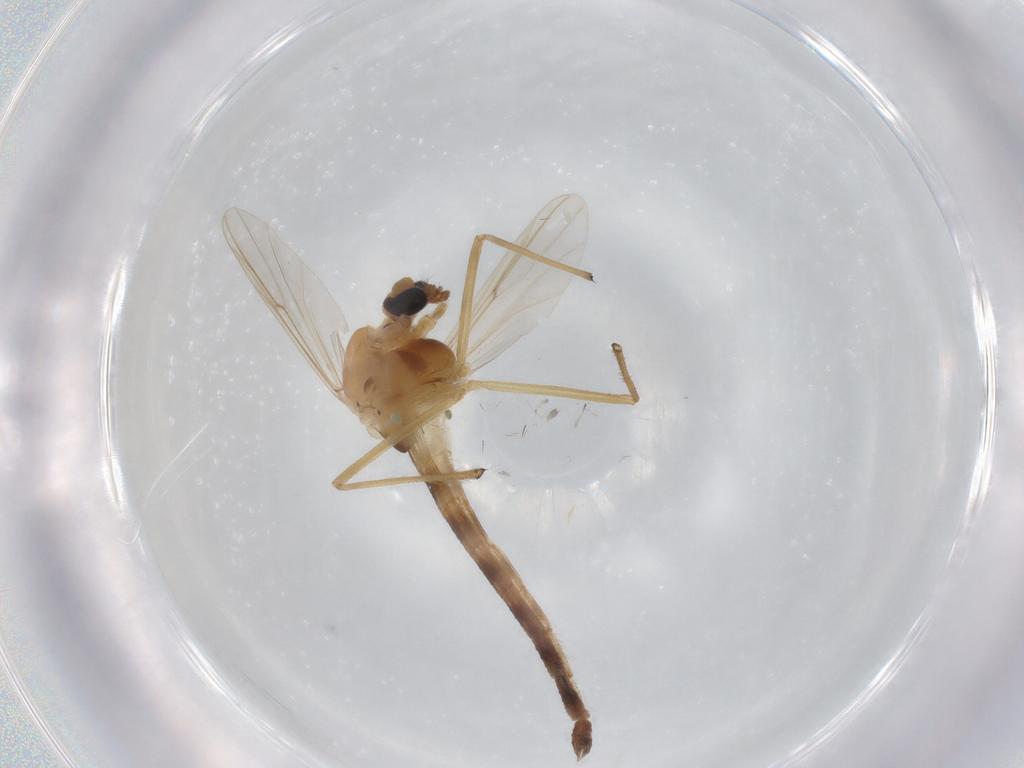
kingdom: Animalia
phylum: Arthropoda
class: Insecta
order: Diptera
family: Chironomidae
